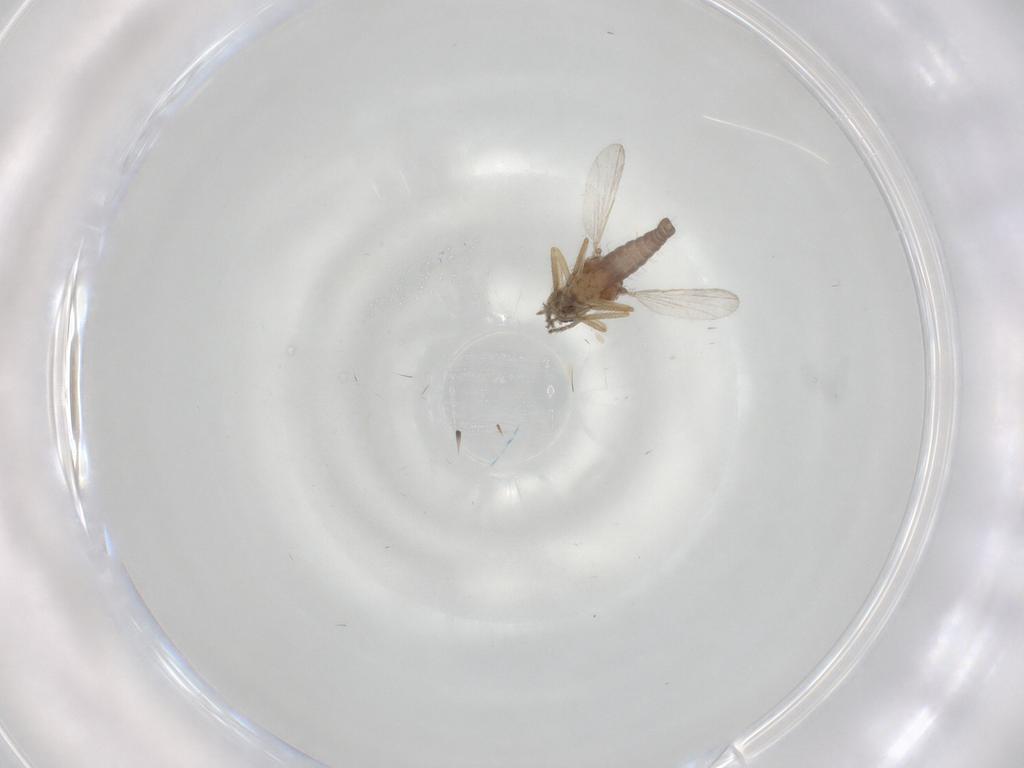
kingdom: Animalia
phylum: Arthropoda
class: Insecta
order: Diptera
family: Ceratopogonidae
